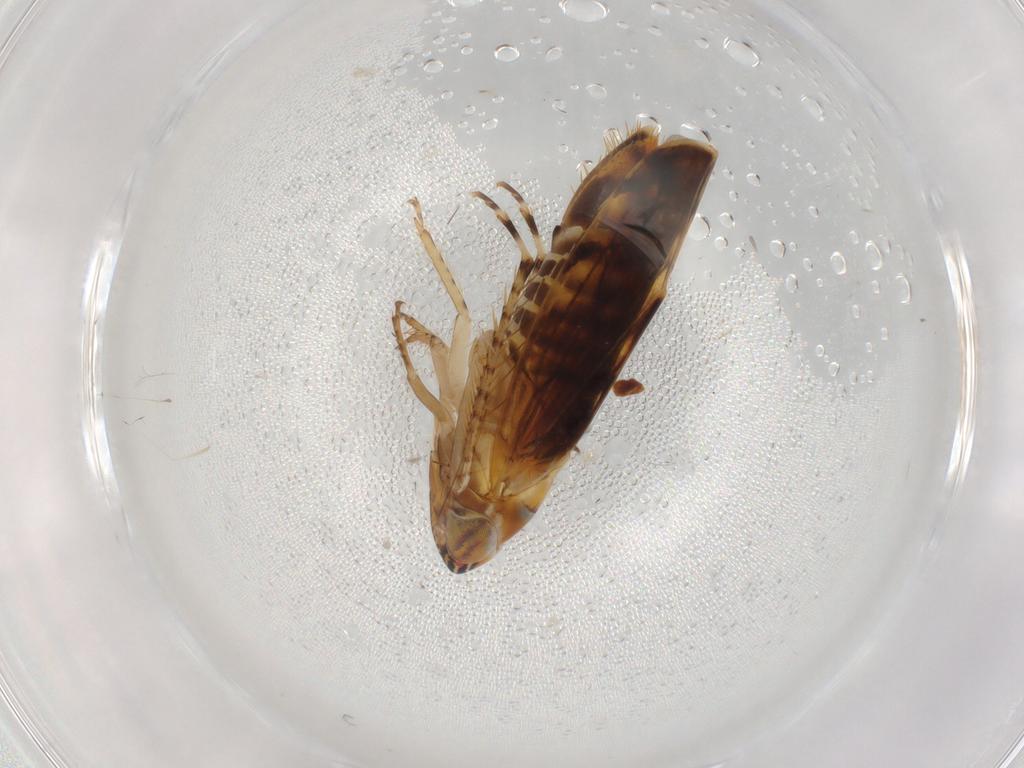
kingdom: Animalia
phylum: Arthropoda
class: Insecta
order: Hemiptera
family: Cicadellidae
